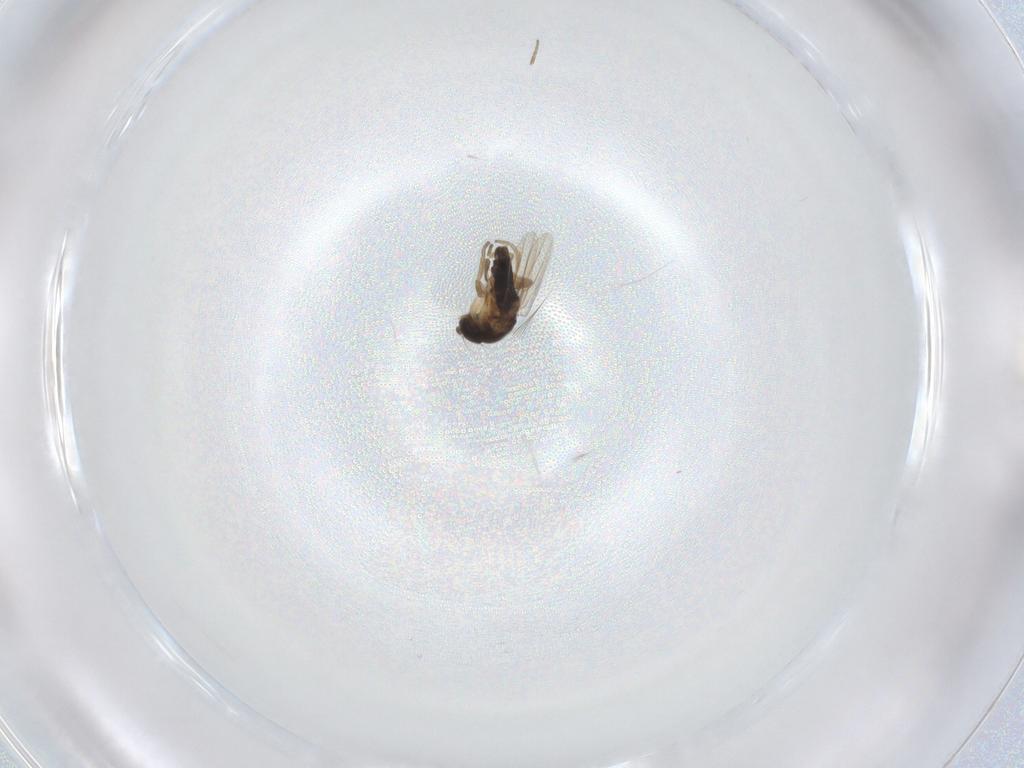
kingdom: Animalia
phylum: Arthropoda
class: Insecta
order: Diptera
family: Phoridae
